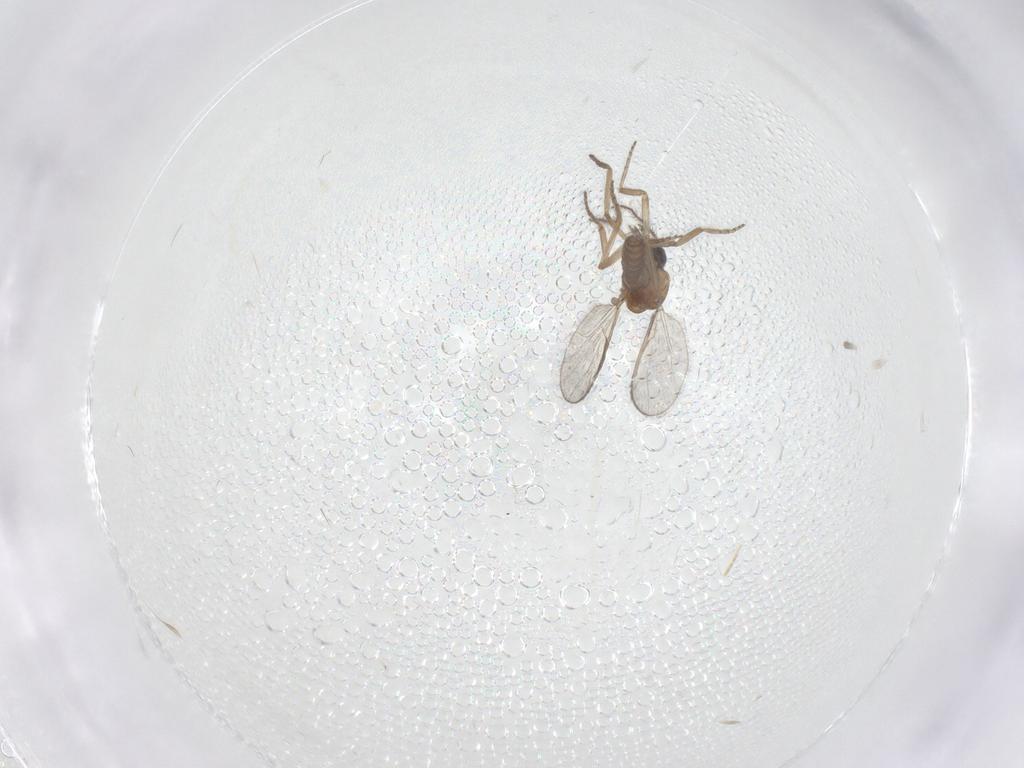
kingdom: Animalia
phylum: Arthropoda
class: Insecta
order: Diptera
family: Ceratopogonidae
